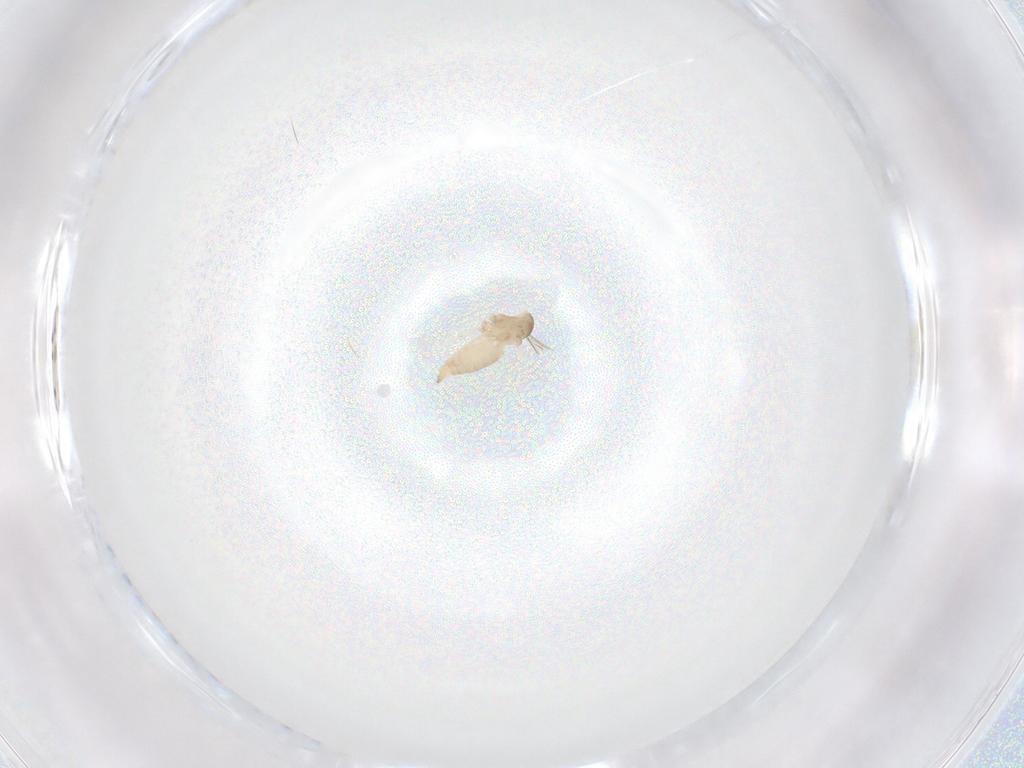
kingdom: Animalia
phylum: Arthropoda
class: Insecta
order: Diptera
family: Cecidomyiidae
